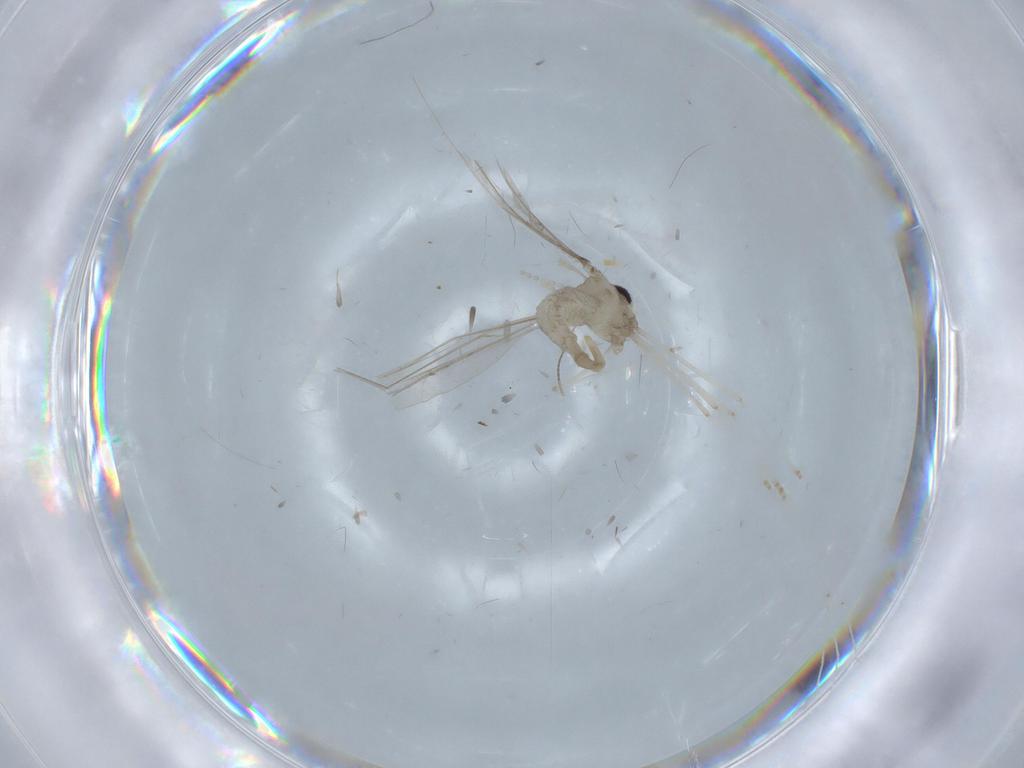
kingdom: Animalia
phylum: Arthropoda
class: Insecta
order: Diptera
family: Cecidomyiidae
